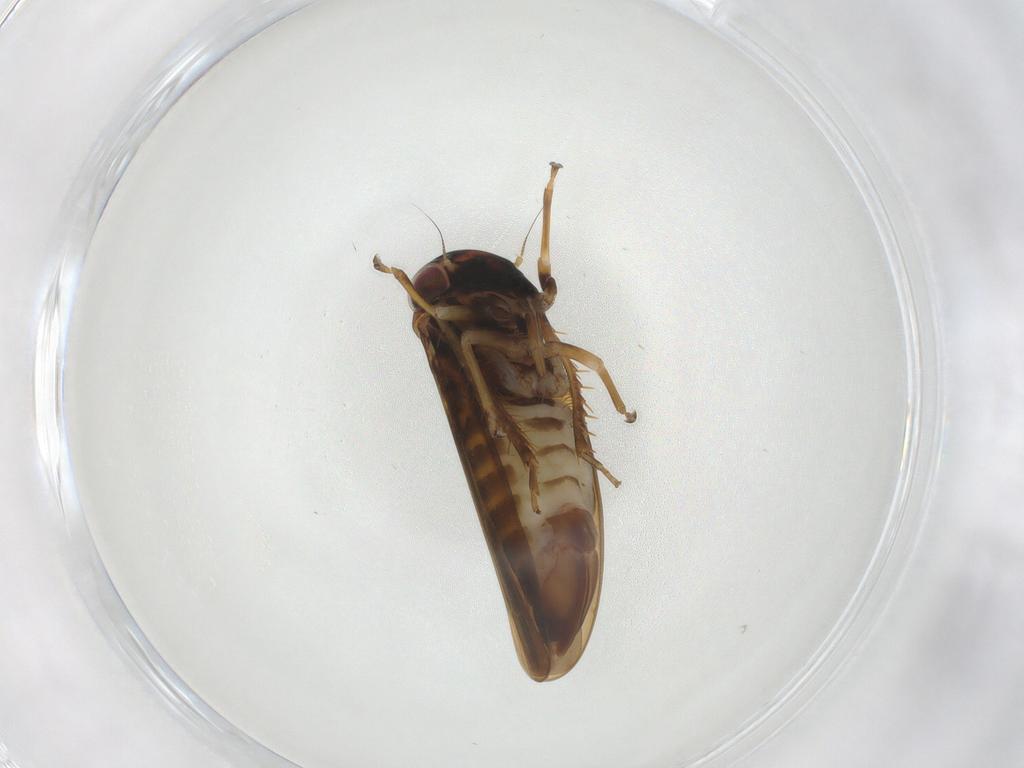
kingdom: Animalia
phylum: Arthropoda
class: Insecta
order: Hemiptera
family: Cicadellidae
